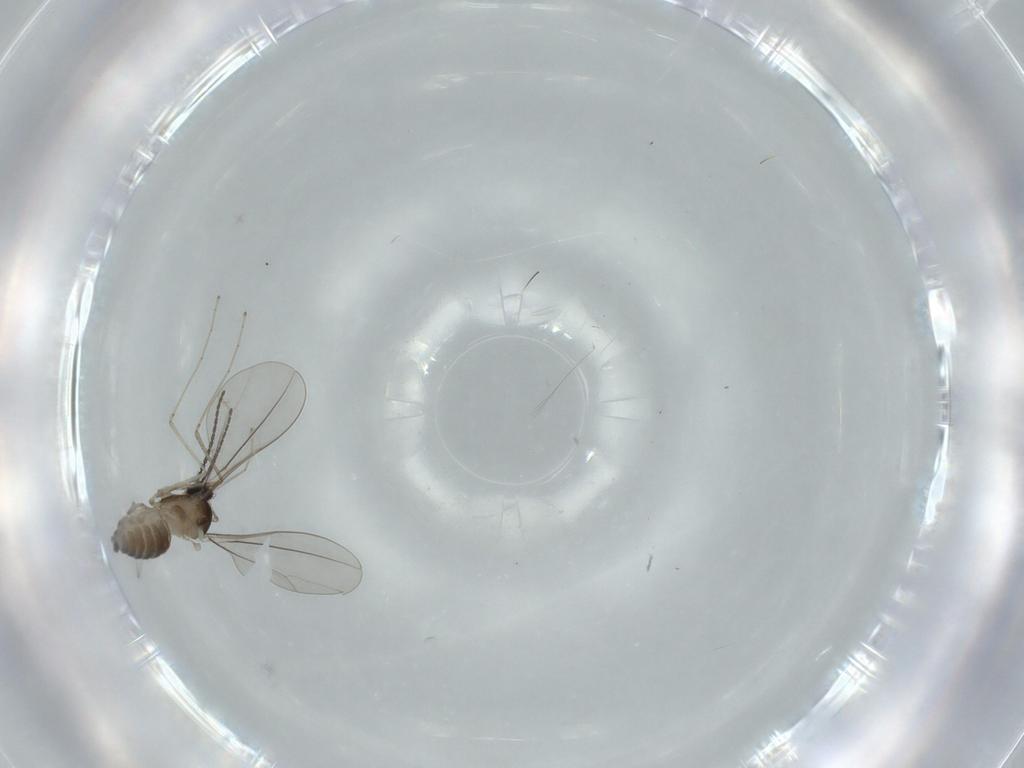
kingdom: Animalia
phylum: Arthropoda
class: Insecta
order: Diptera
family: Cecidomyiidae
